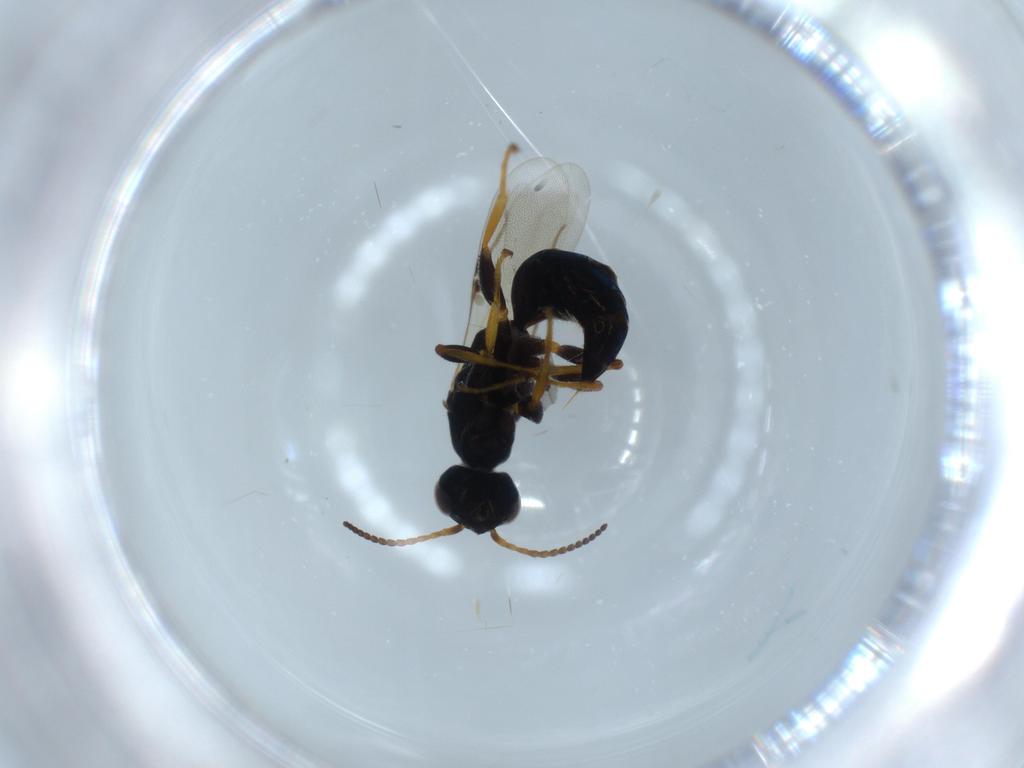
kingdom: Animalia
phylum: Arthropoda
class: Insecta
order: Hymenoptera
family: Bethylidae
